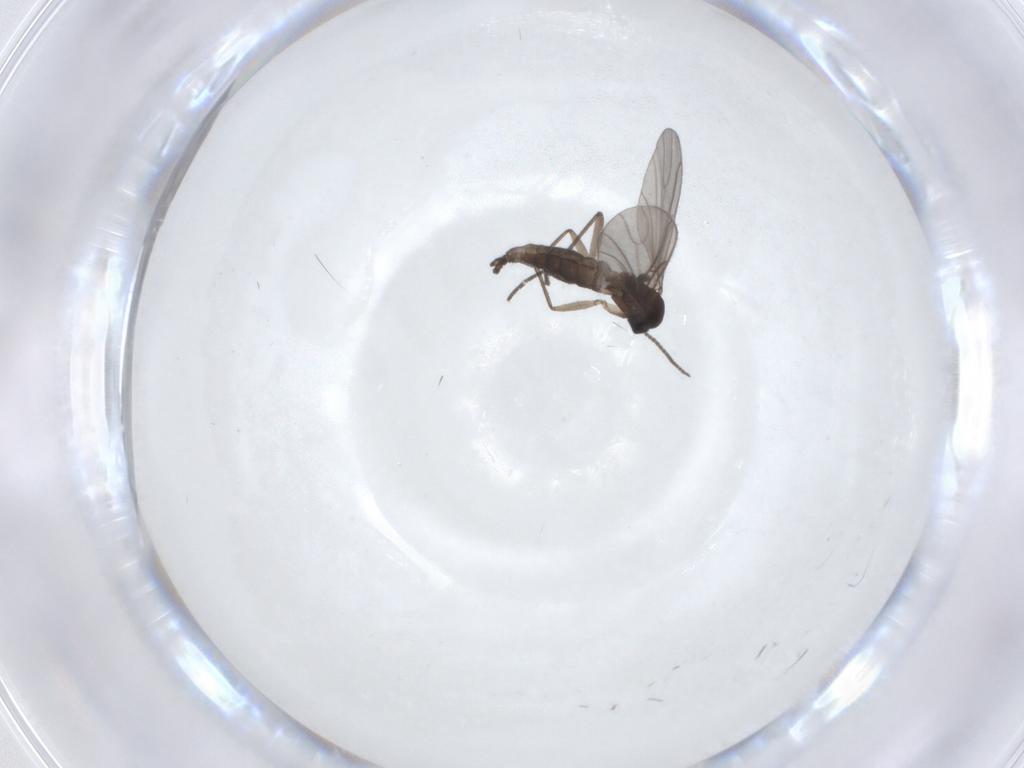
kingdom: Animalia
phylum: Arthropoda
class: Insecta
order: Diptera
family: Sciaridae
